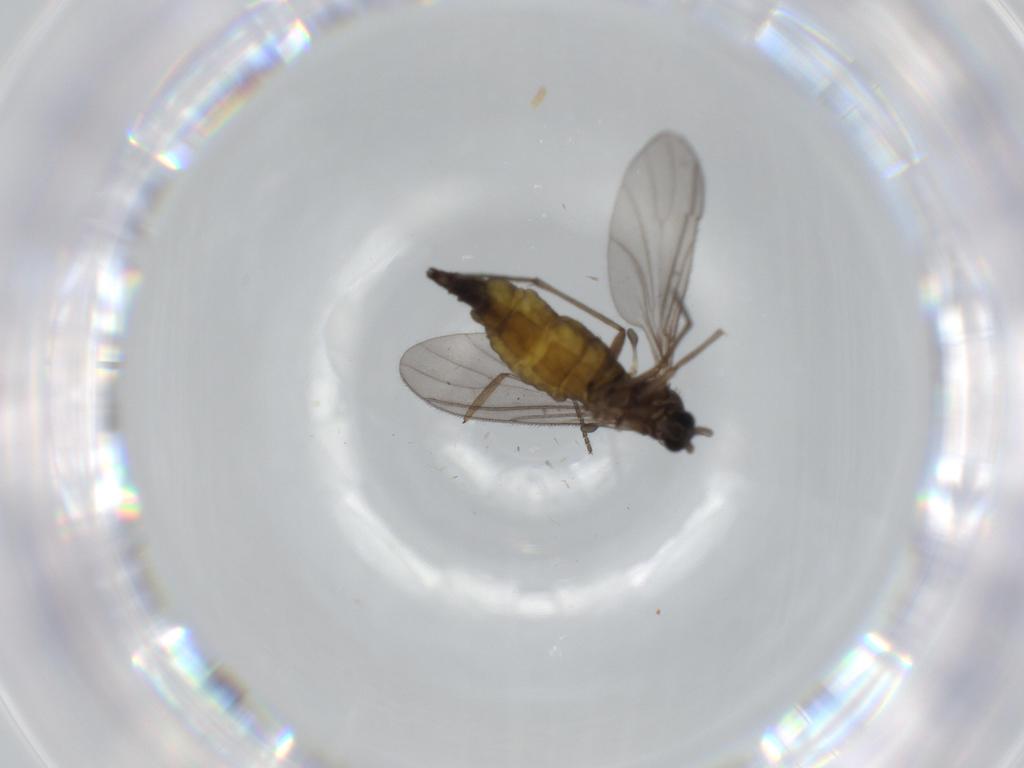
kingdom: Animalia
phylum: Arthropoda
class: Insecta
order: Diptera
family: Sciaridae
